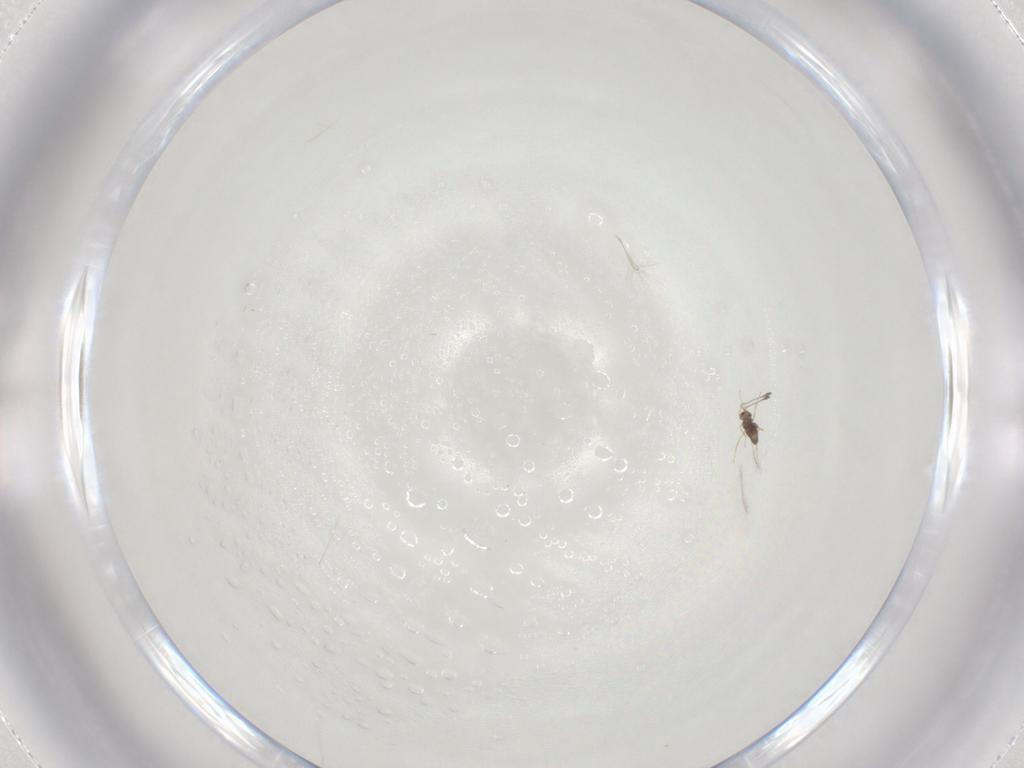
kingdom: Animalia
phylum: Arthropoda
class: Insecta
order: Hymenoptera
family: Mymaridae
